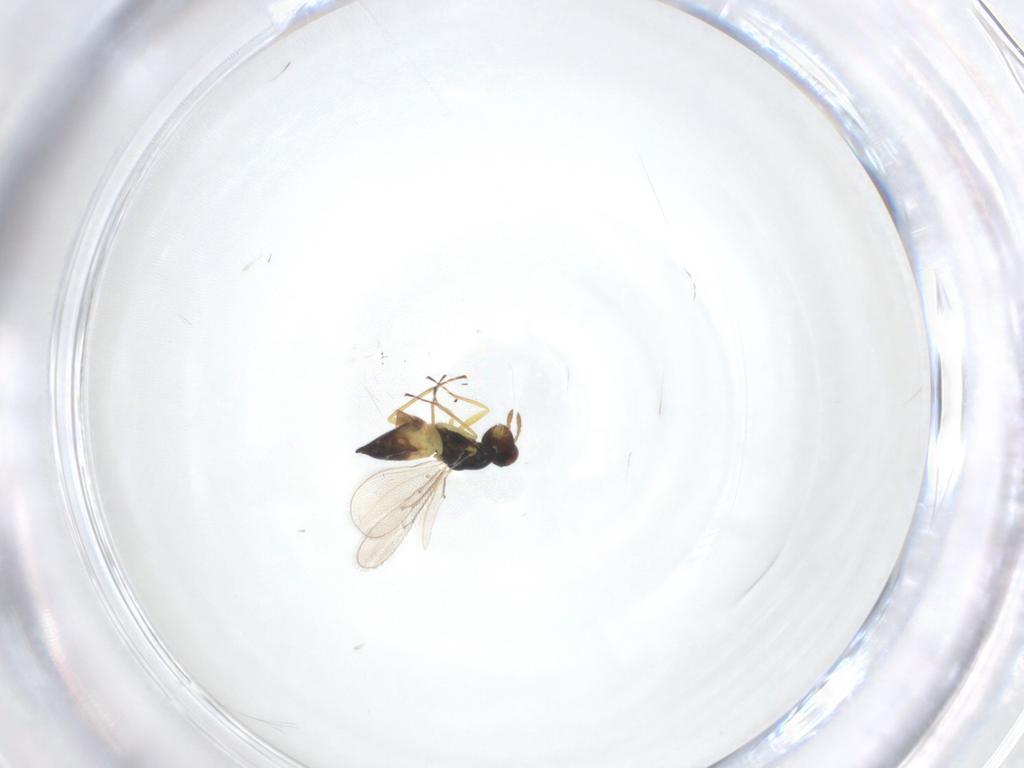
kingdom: Animalia
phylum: Arthropoda
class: Insecta
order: Hymenoptera
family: Eulophidae
